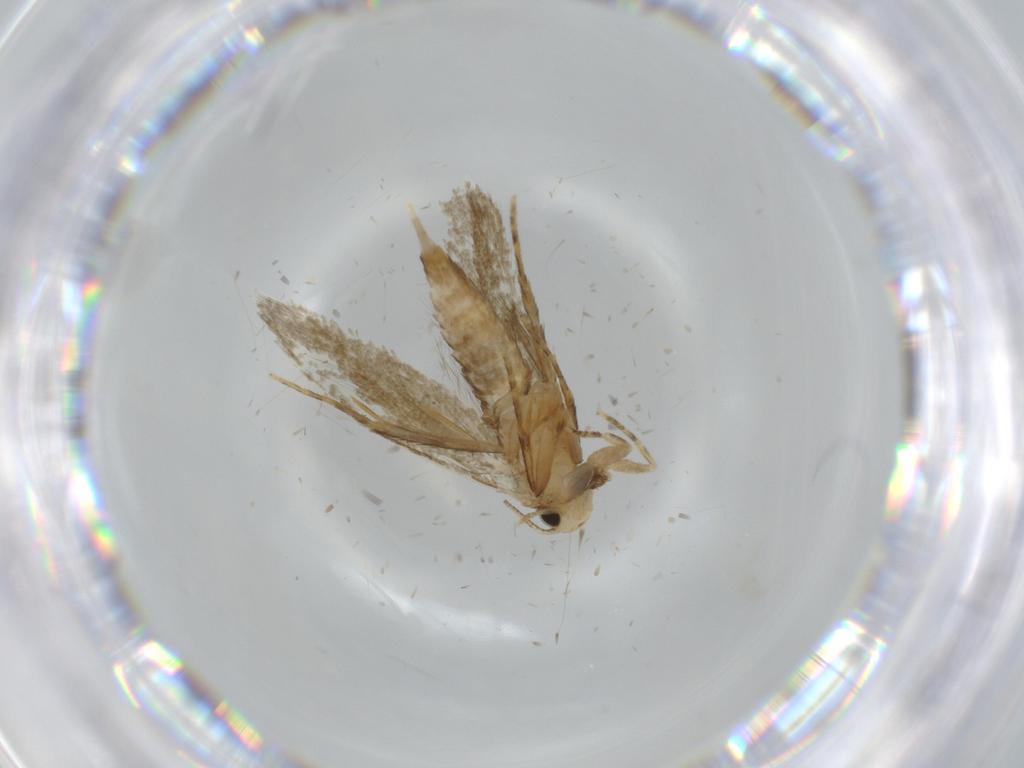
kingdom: Animalia
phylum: Arthropoda
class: Insecta
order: Lepidoptera
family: Tineidae
